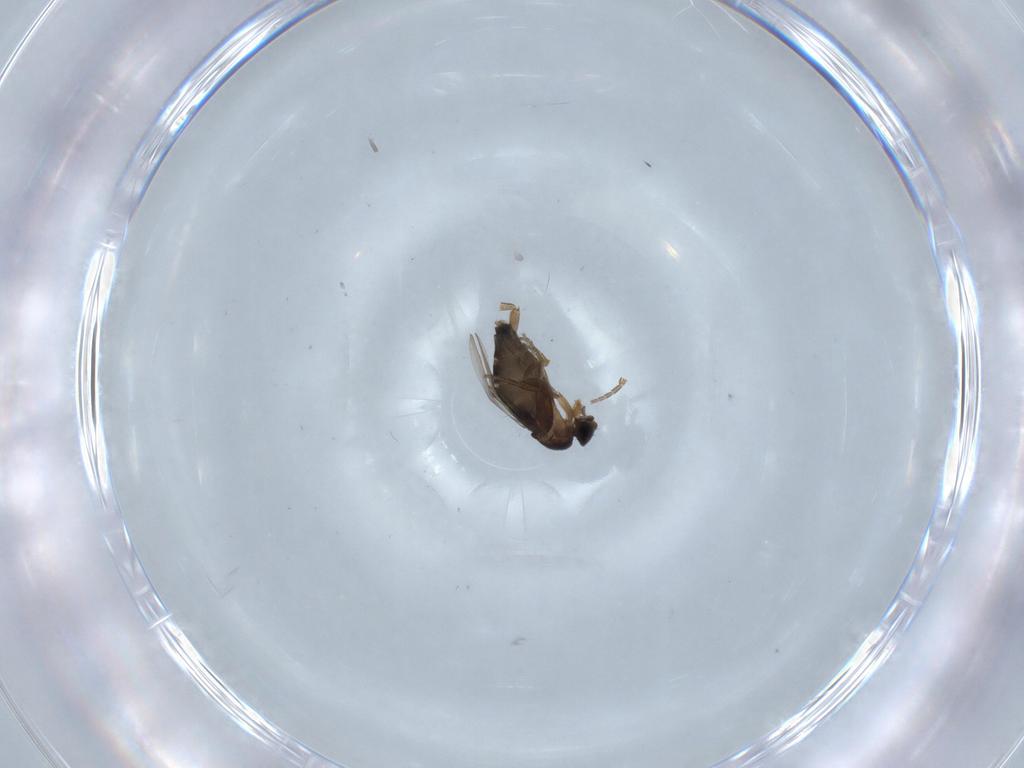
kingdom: Animalia
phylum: Arthropoda
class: Insecta
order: Diptera
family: Phoridae
